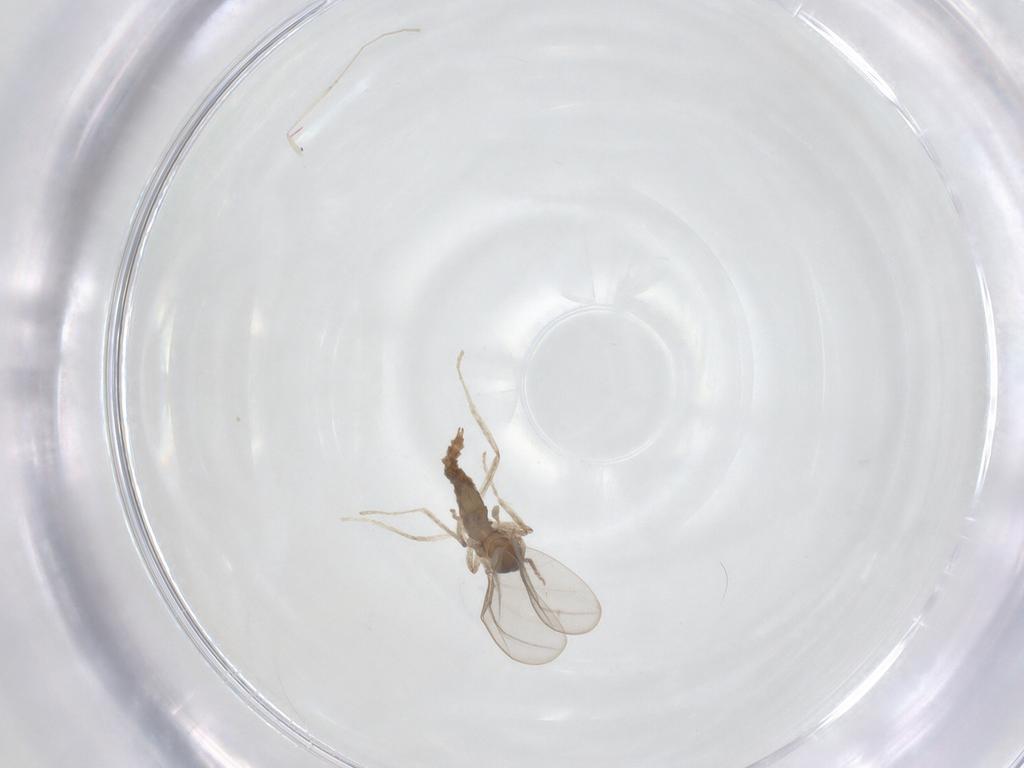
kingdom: Animalia
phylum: Arthropoda
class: Insecta
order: Diptera
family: Cecidomyiidae
